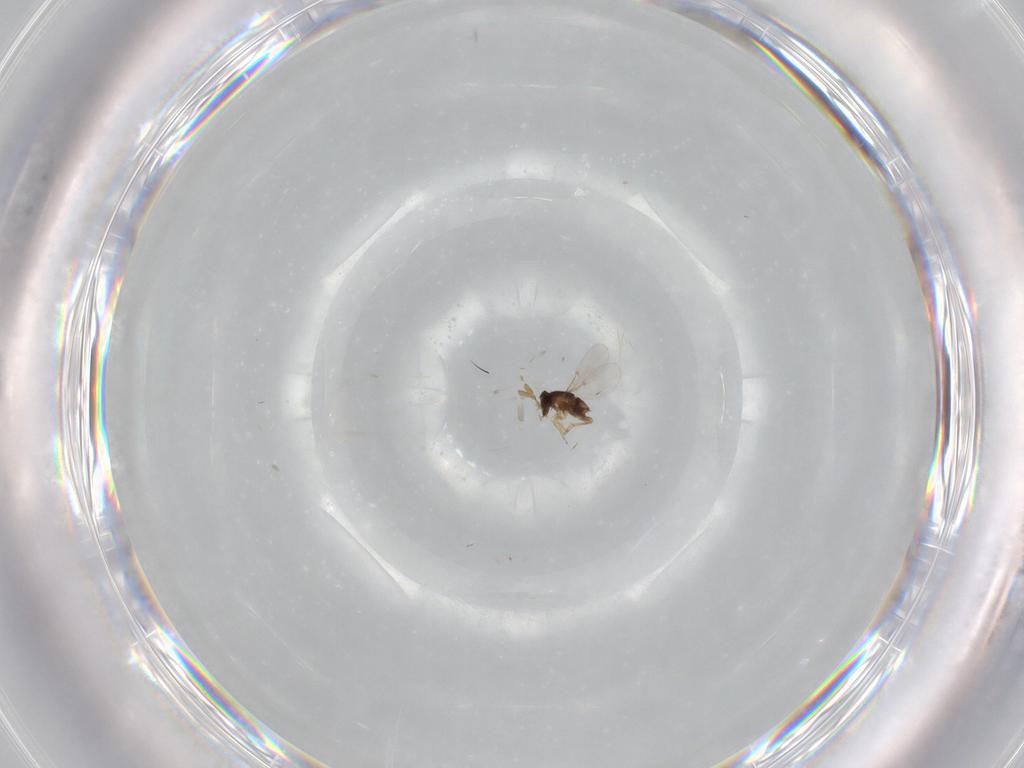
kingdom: Animalia
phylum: Arthropoda
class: Insecta
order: Hymenoptera
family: Encyrtidae
